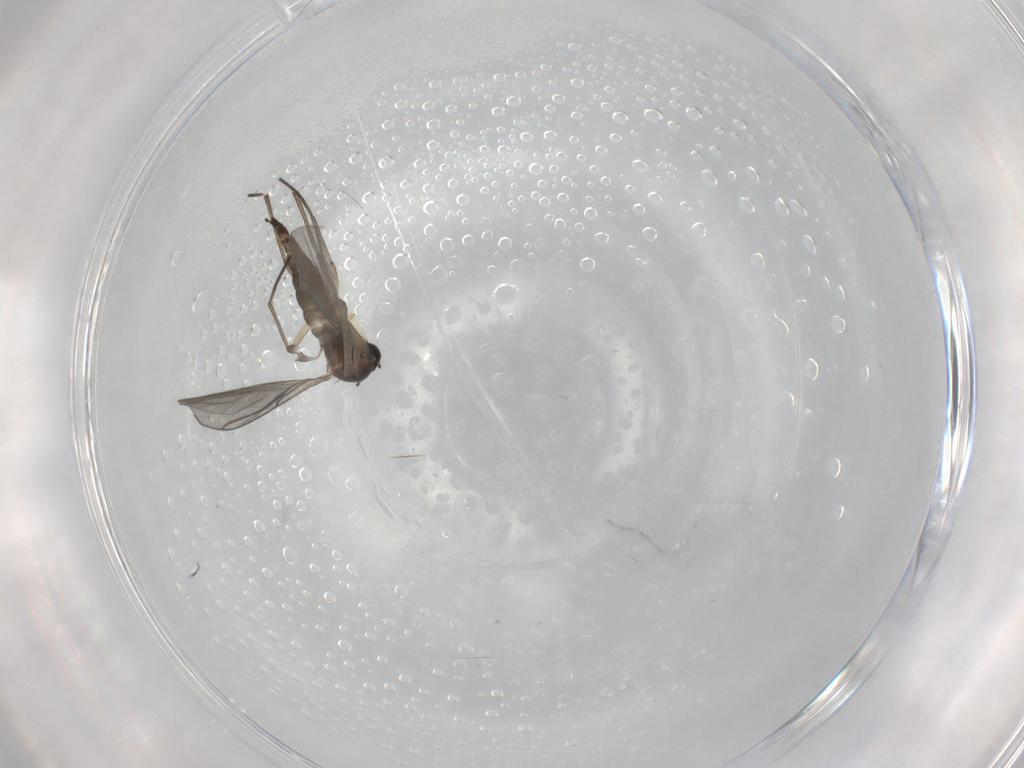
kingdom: Animalia
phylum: Arthropoda
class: Insecta
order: Diptera
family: Sciaridae
